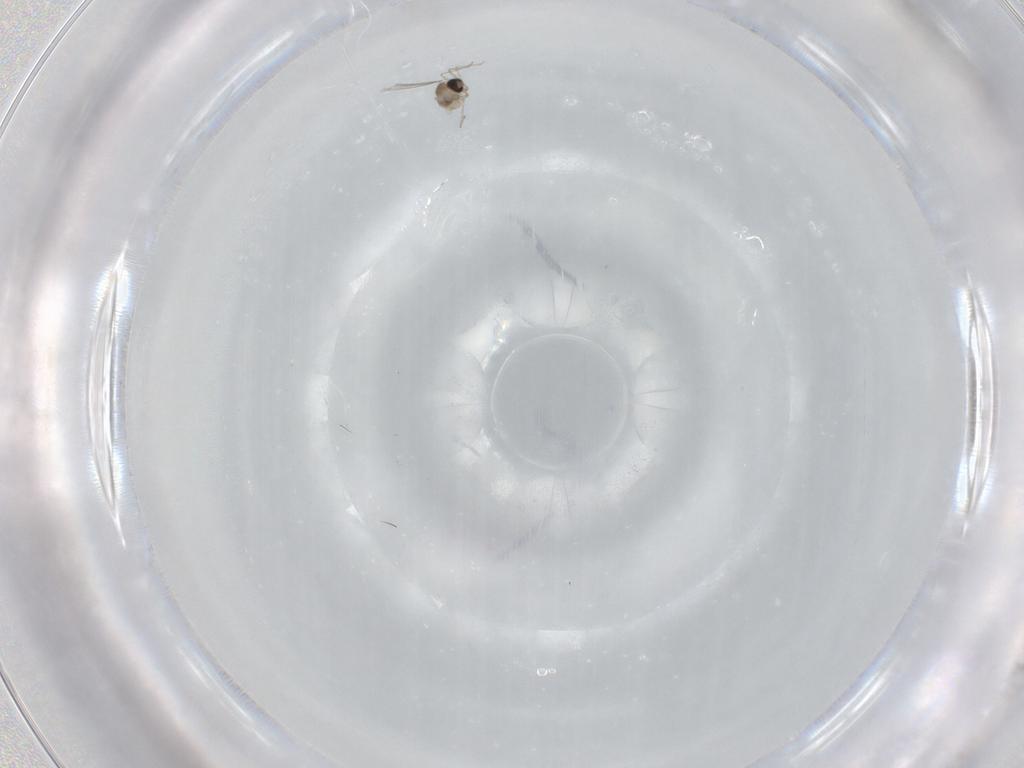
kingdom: Animalia
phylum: Arthropoda
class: Insecta
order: Diptera
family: Cecidomyiidae
